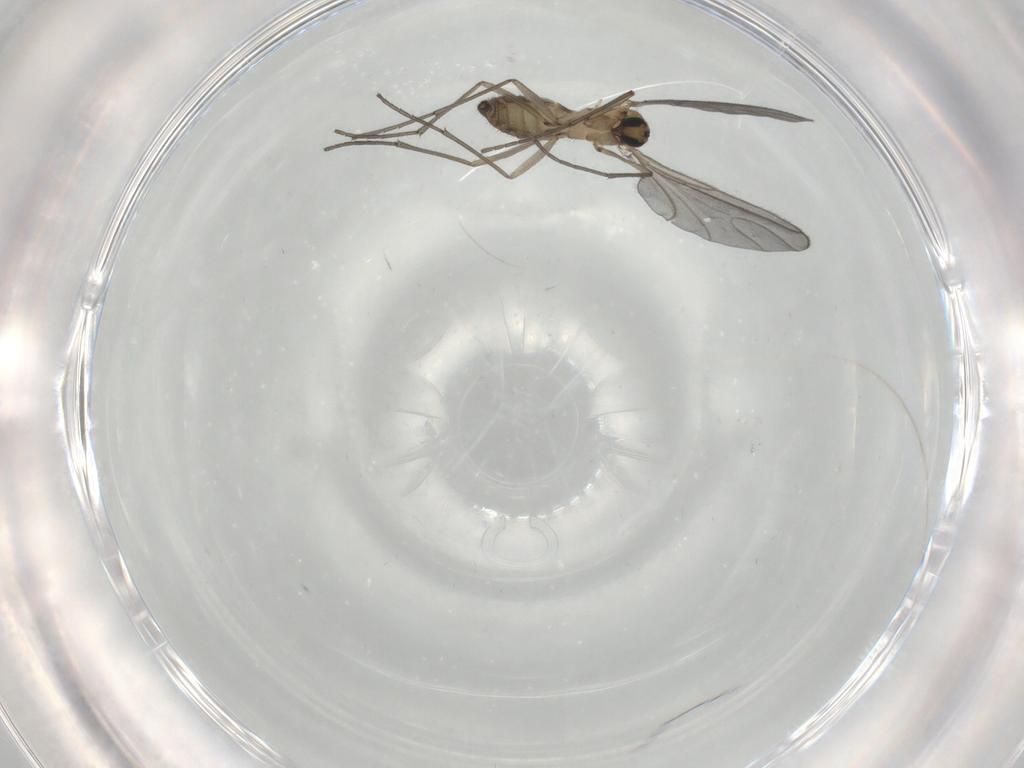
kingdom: Animalia
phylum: Arthropoda
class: Insecta
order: Diptera
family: Sciaridae
